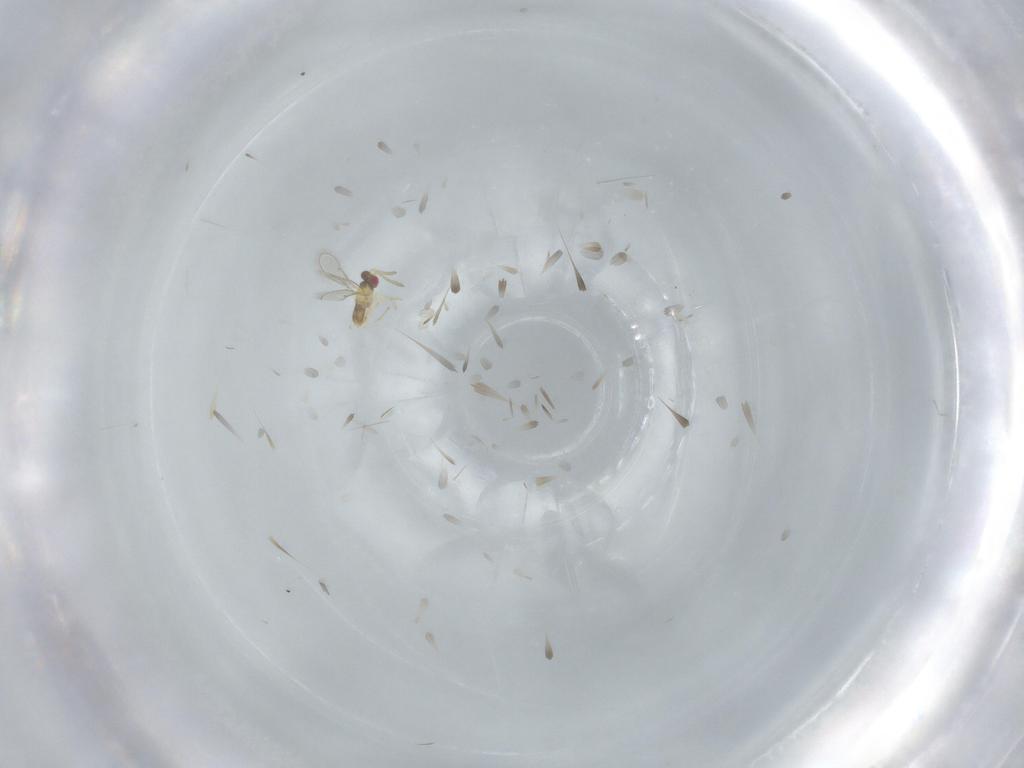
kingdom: Animalia
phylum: Arthropoda
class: Insecta
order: Hymenoptera
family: Aphelinidae
